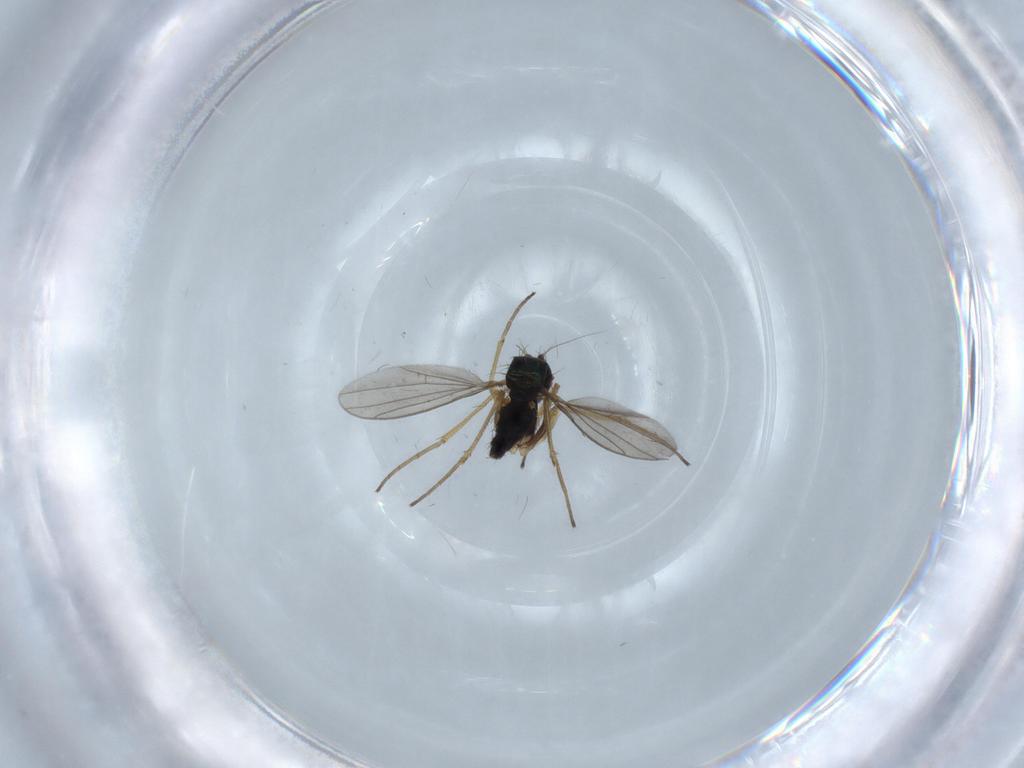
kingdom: Animalia
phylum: Arthropoda
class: Insecta
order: Diptera
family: Dolichopodidae
